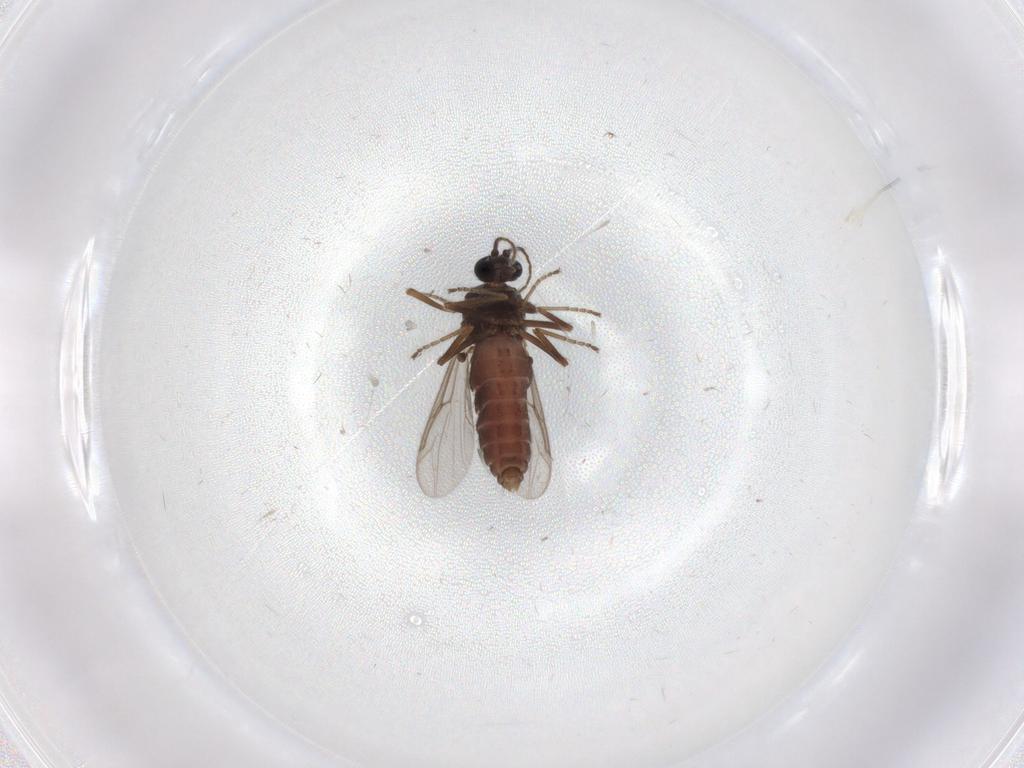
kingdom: Animalia
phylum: Arthropoda
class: Insecta
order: Diptera
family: Ceratopogonidae
